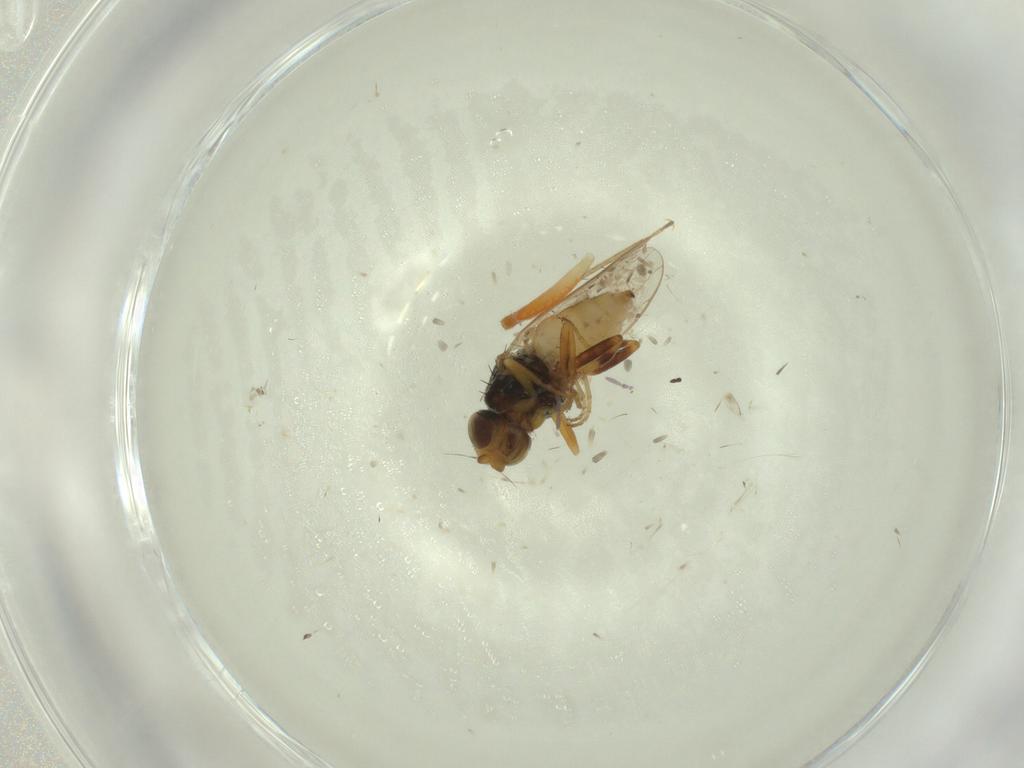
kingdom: Animalia
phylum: Arthropoda
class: Insecta
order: Diptera
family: Chloropidae
